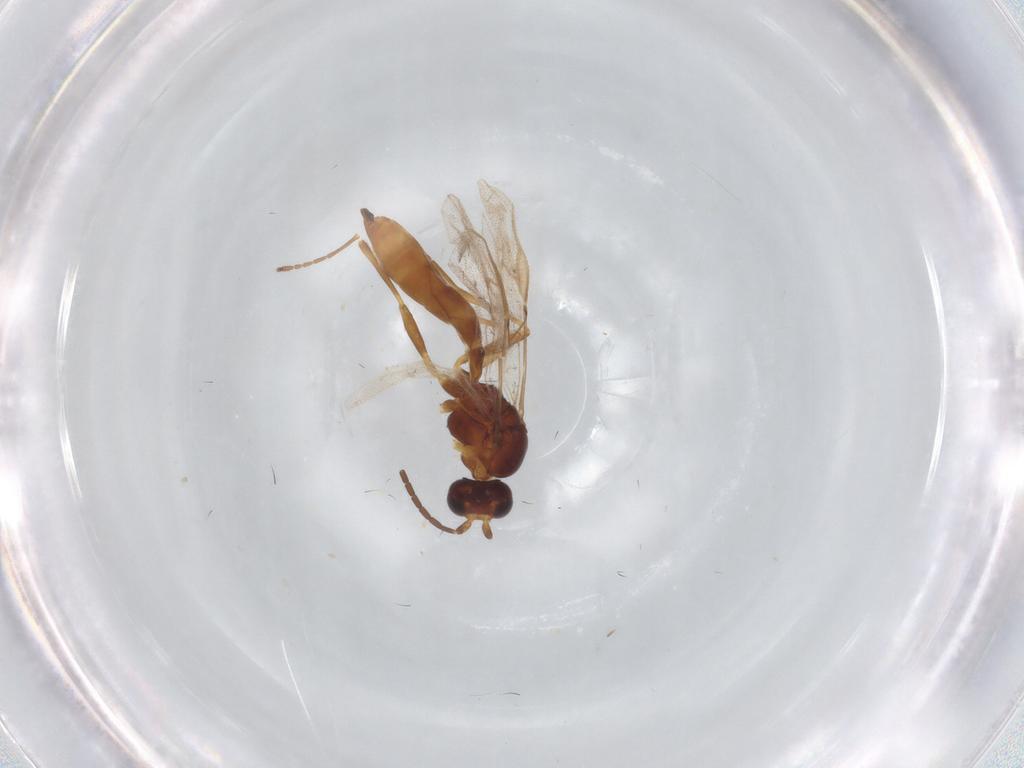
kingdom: Animalia
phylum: Arthropoda
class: Insecta
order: Hymenoptera
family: Braconidae
